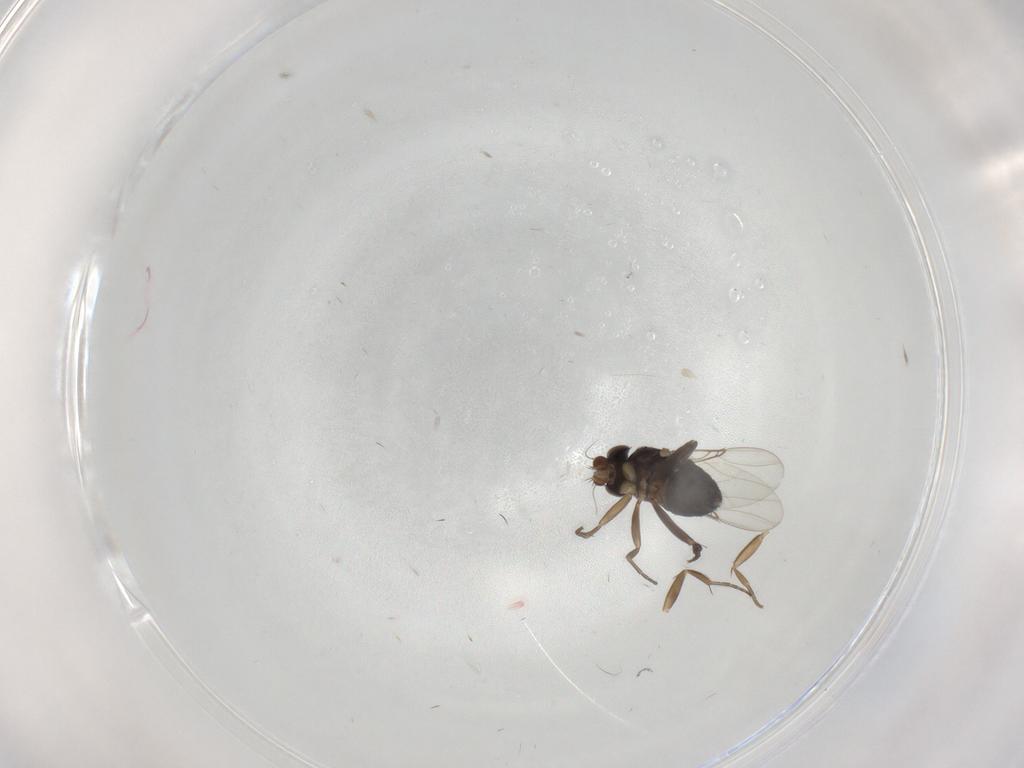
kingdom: Animalia
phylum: Arthropoda
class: Insecta
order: Diptera
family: Phoridae
